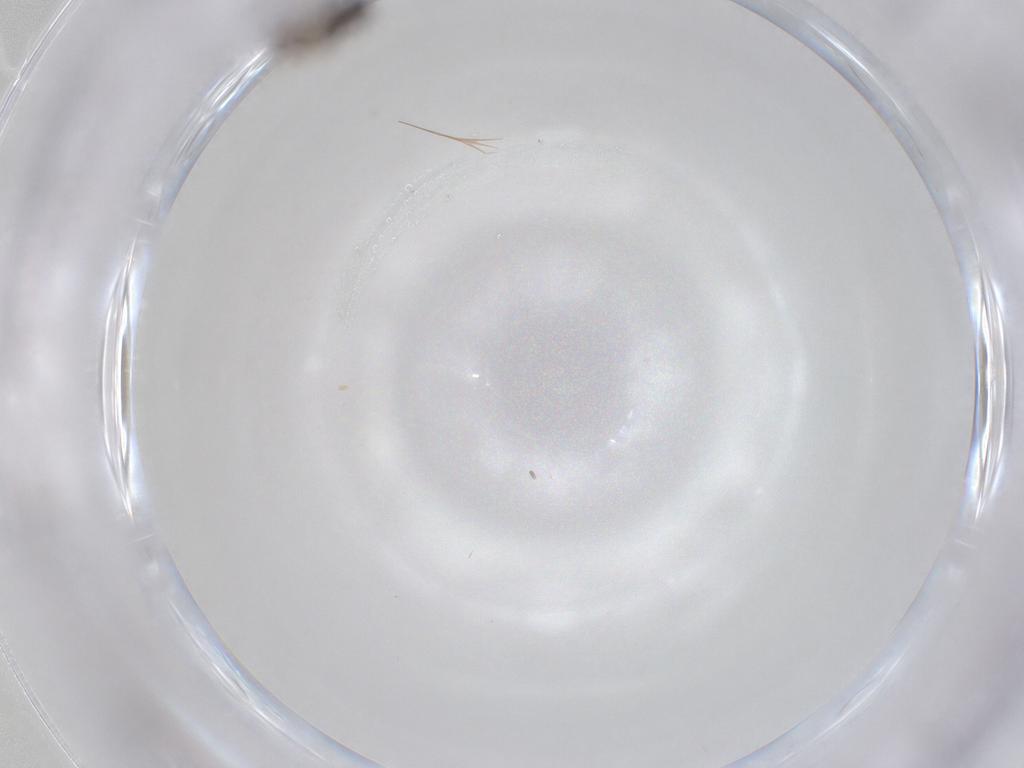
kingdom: Animalia
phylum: Arthropoda
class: Insecta
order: Hymenoptera
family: Eulophidae
